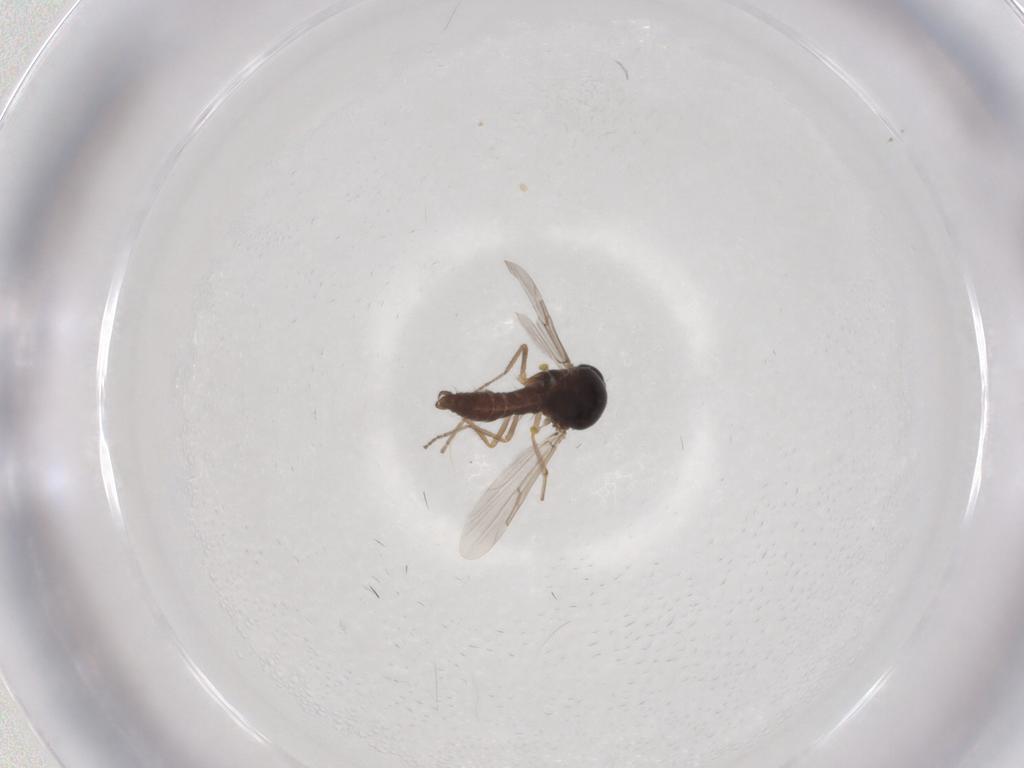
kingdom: Animalia
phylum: Arthropoda
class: Insecta
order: Diptera
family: Ceratopogonidae
